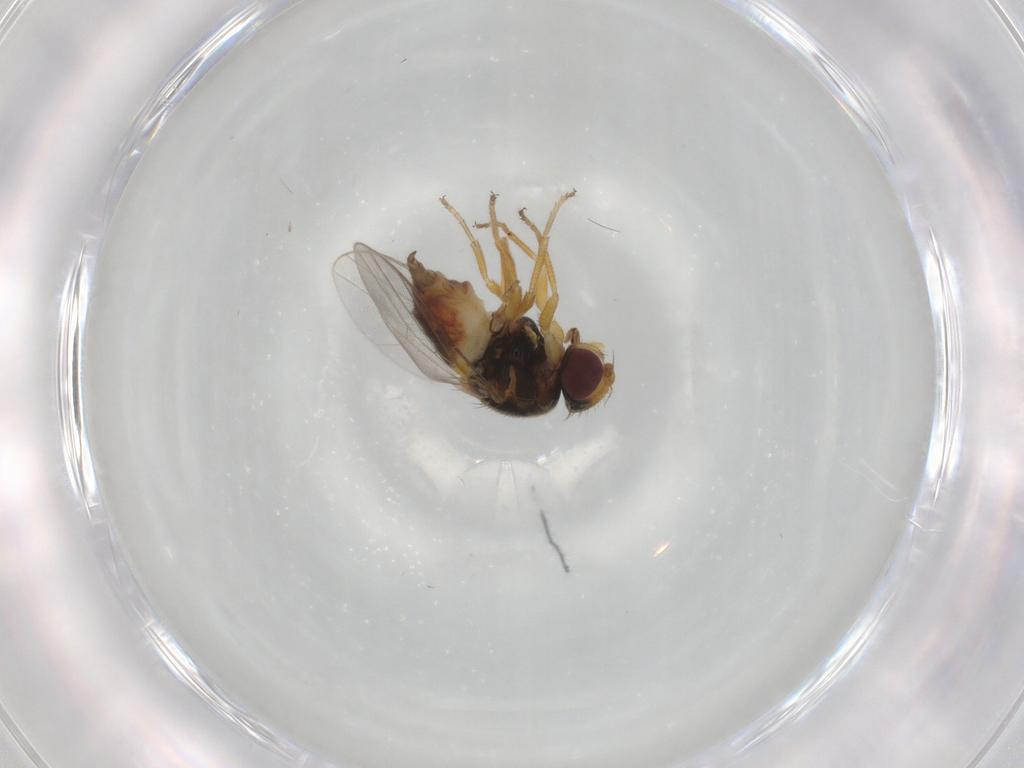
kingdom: Animalia
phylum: Arthropoda
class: Insecta
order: Diptera
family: Chloropidae
